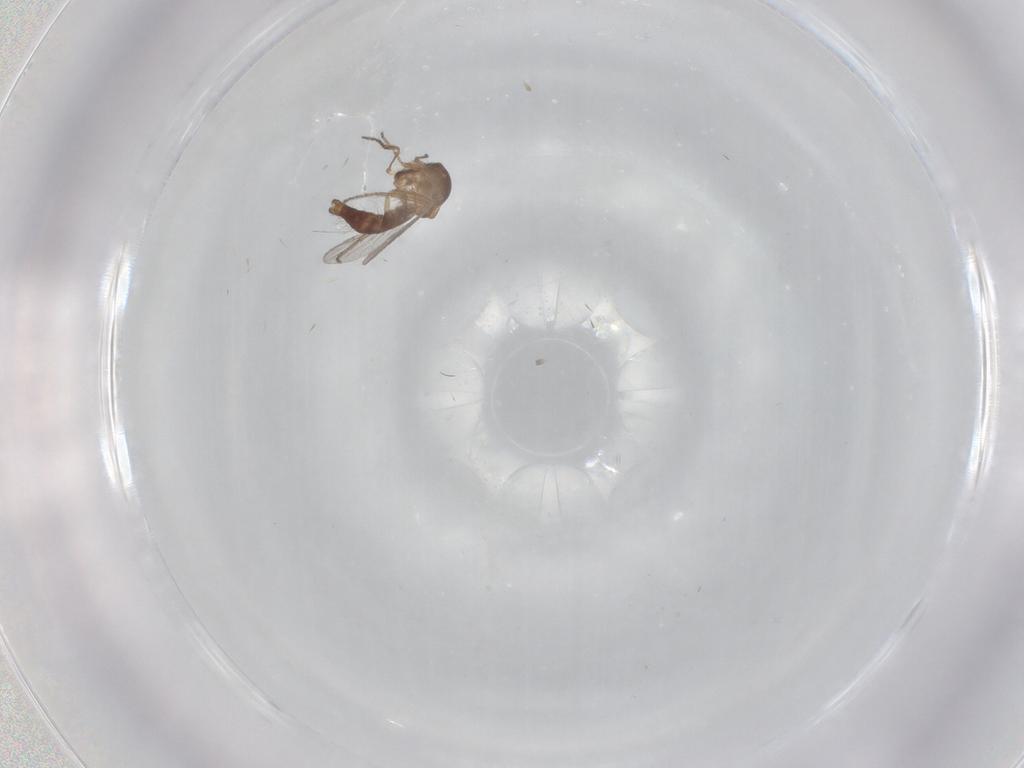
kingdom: Animalia
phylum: Arthropoda
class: Insecta
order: Diptera
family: Ceratopogonidae
